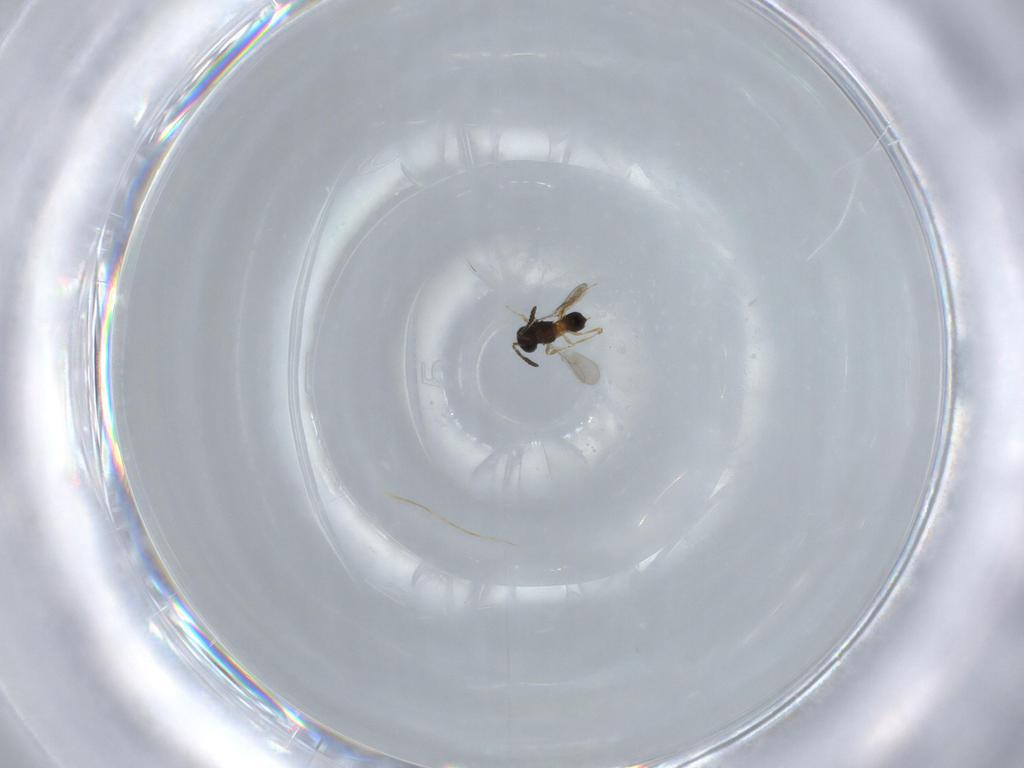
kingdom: Animalia
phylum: Arthropoda
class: Insecta
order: Hymenoptera
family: Scelionidae
